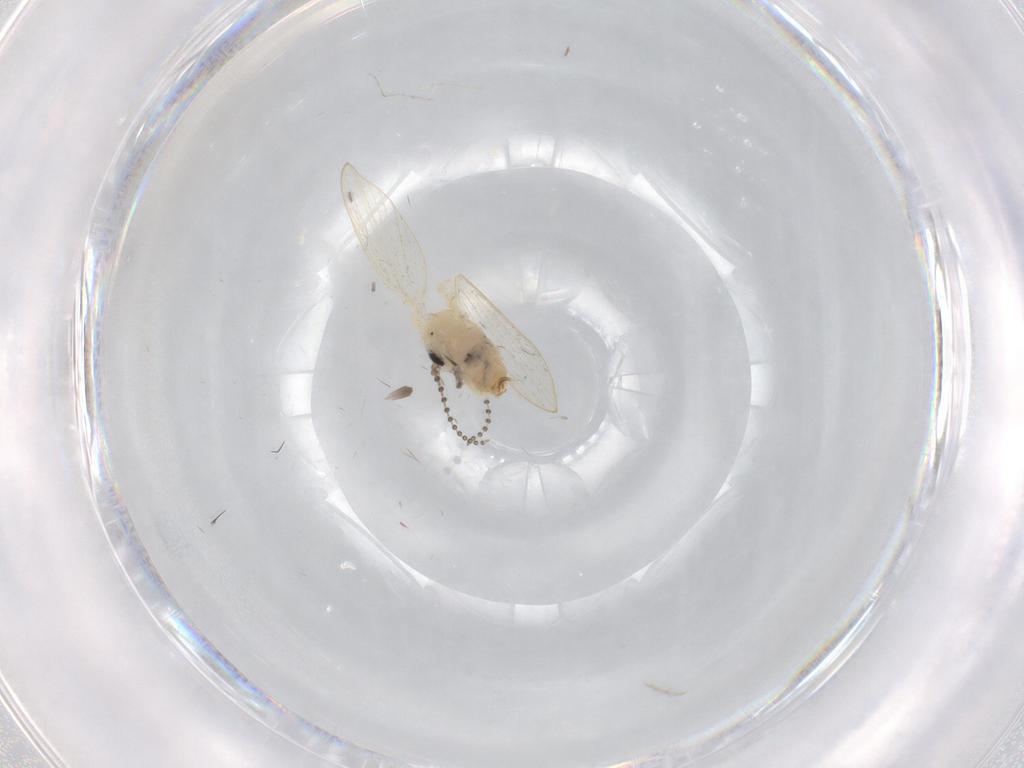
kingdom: Animalia
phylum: Arthropoda
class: Insecta
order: Diptera
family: Psychodidae
